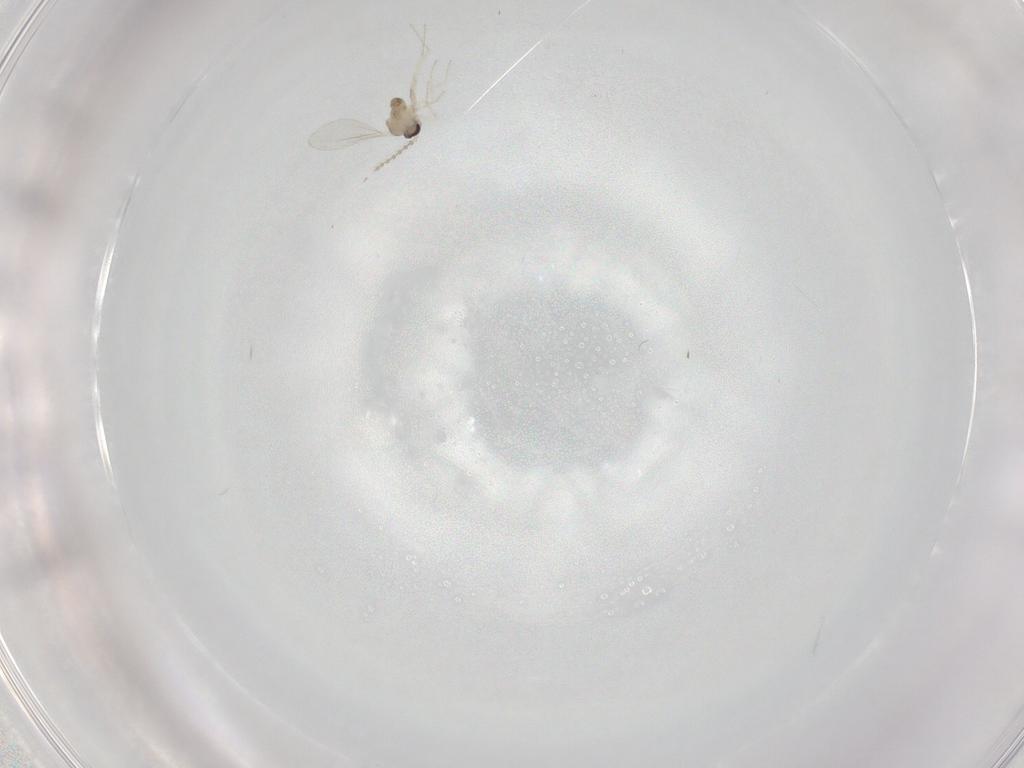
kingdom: Animalia
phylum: Arthropoda
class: Insecta
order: Diptera
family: Cecidomyiidae
